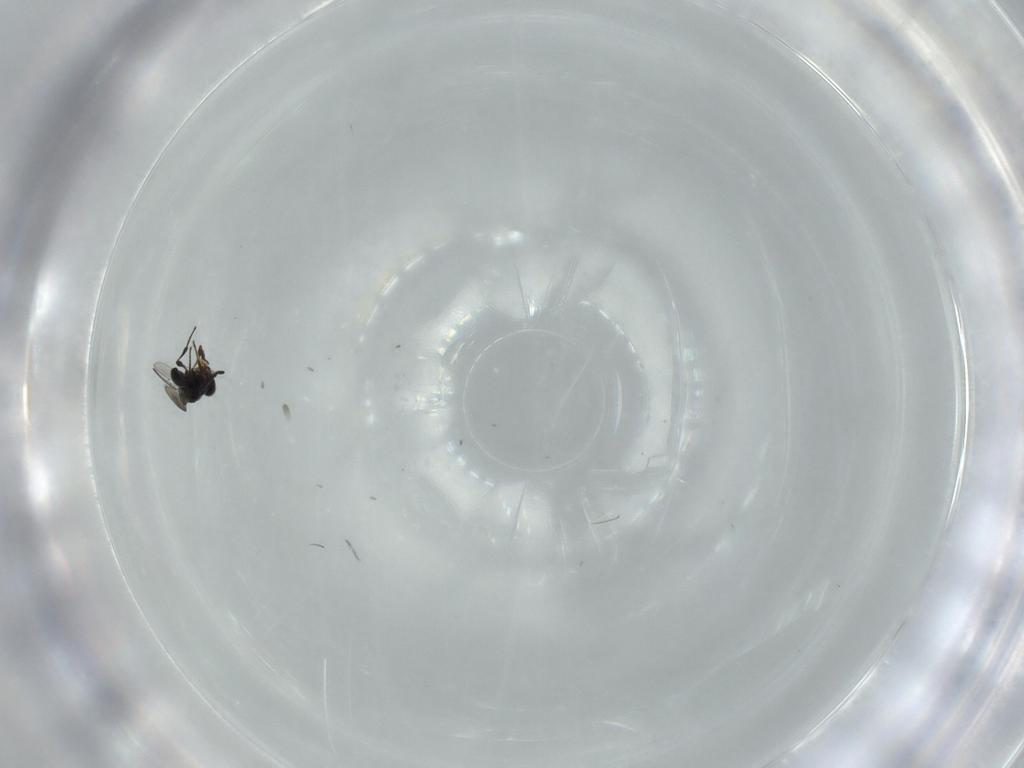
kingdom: Animalia
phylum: Arthropoda
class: Insecta
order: Hymenoptera
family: Platygastridae
